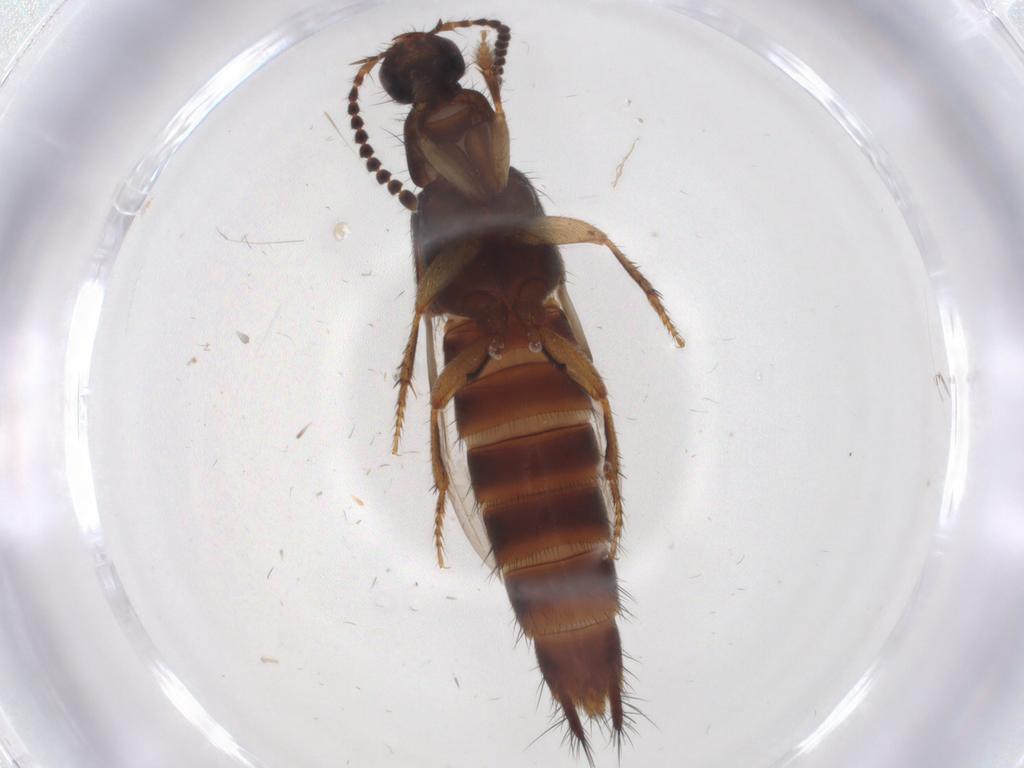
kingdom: Animalia
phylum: Arthropoda
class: Insecta
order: Coleoptera
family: Staphylinidae
